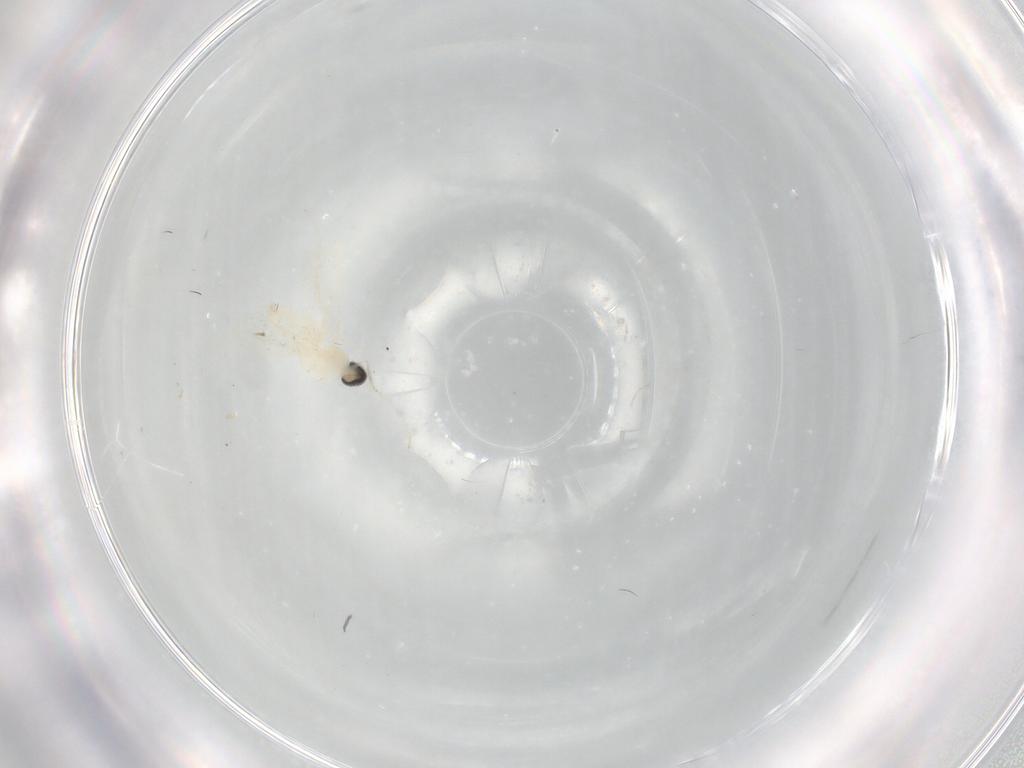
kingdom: Animalia
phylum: Arthropoda
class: Insecta
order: Diptera
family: Cecidomyiidae
